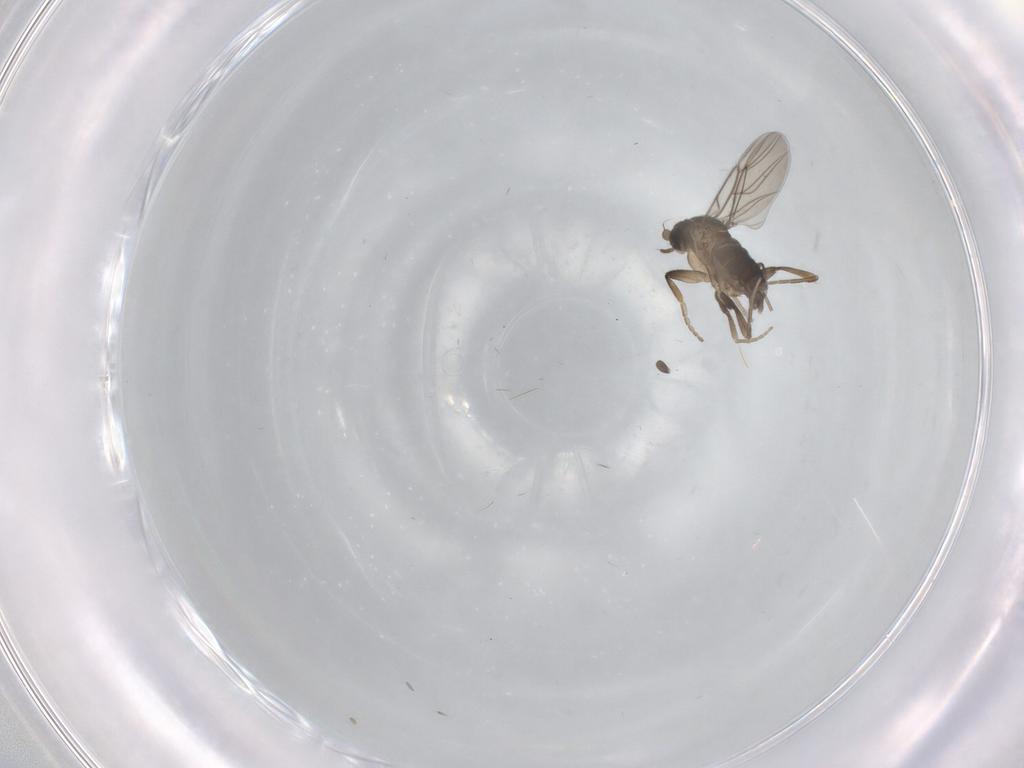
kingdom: Animalia
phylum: Arthropoda
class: Insecta
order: Diptera
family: Phoridae
